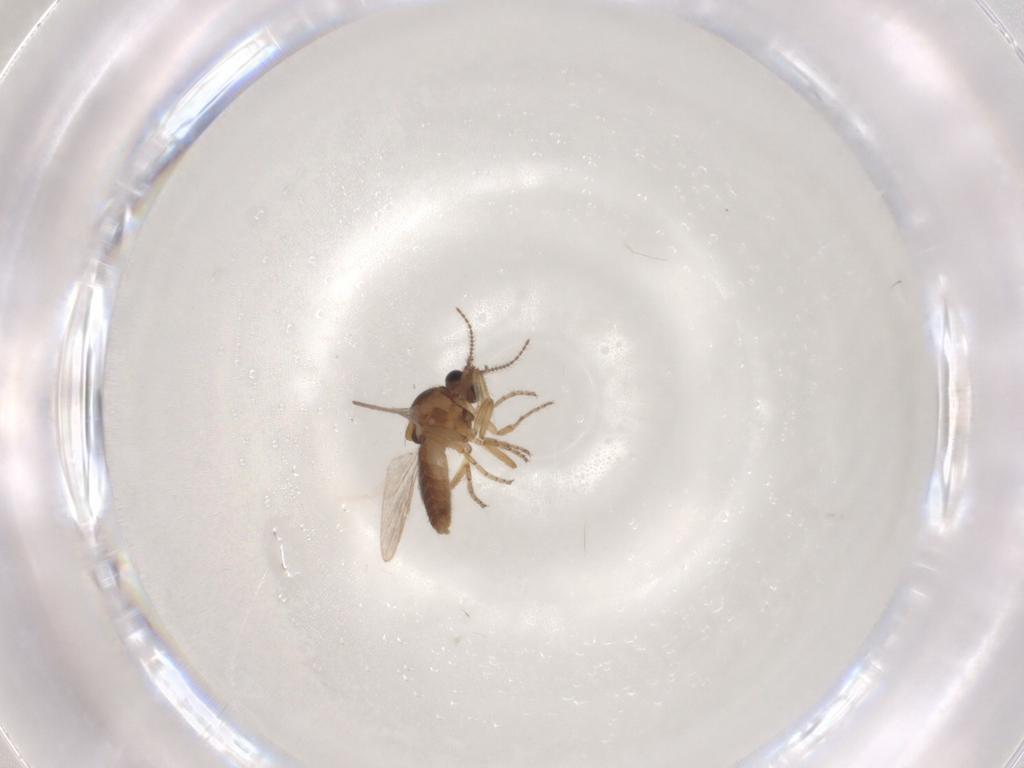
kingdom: Animalia
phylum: Arthropoda
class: Insecta
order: Diptera
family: Ceratopogonidae
